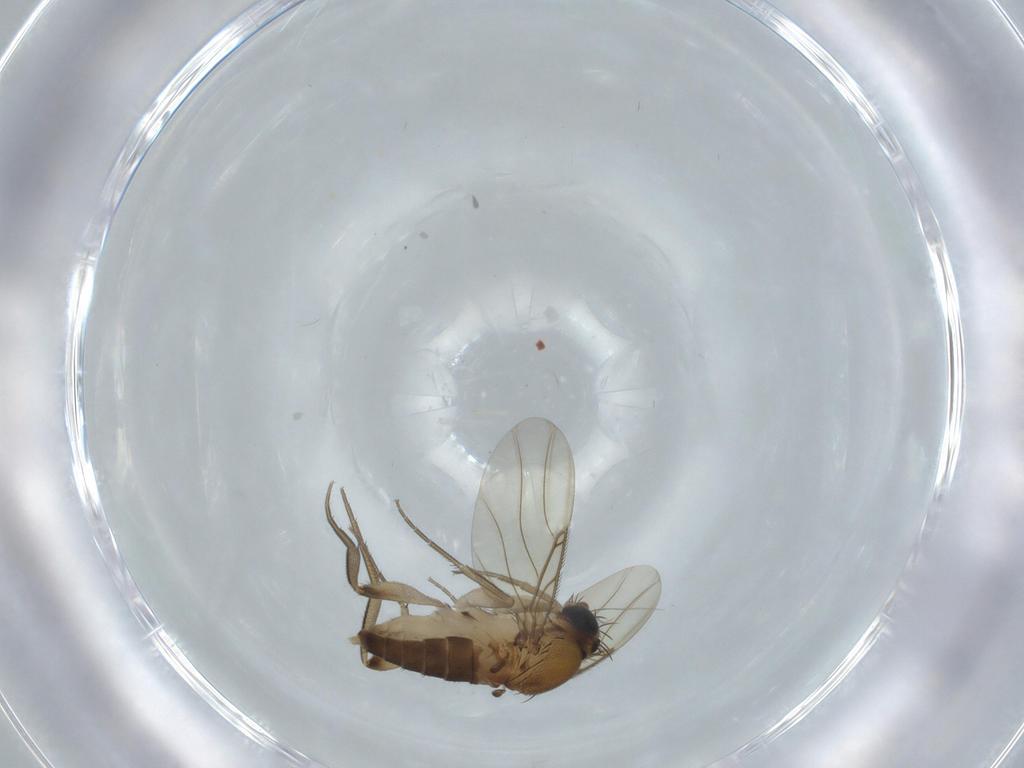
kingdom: Animalia
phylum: Arthropoda
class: Insecta
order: Diptera
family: Phoridae
